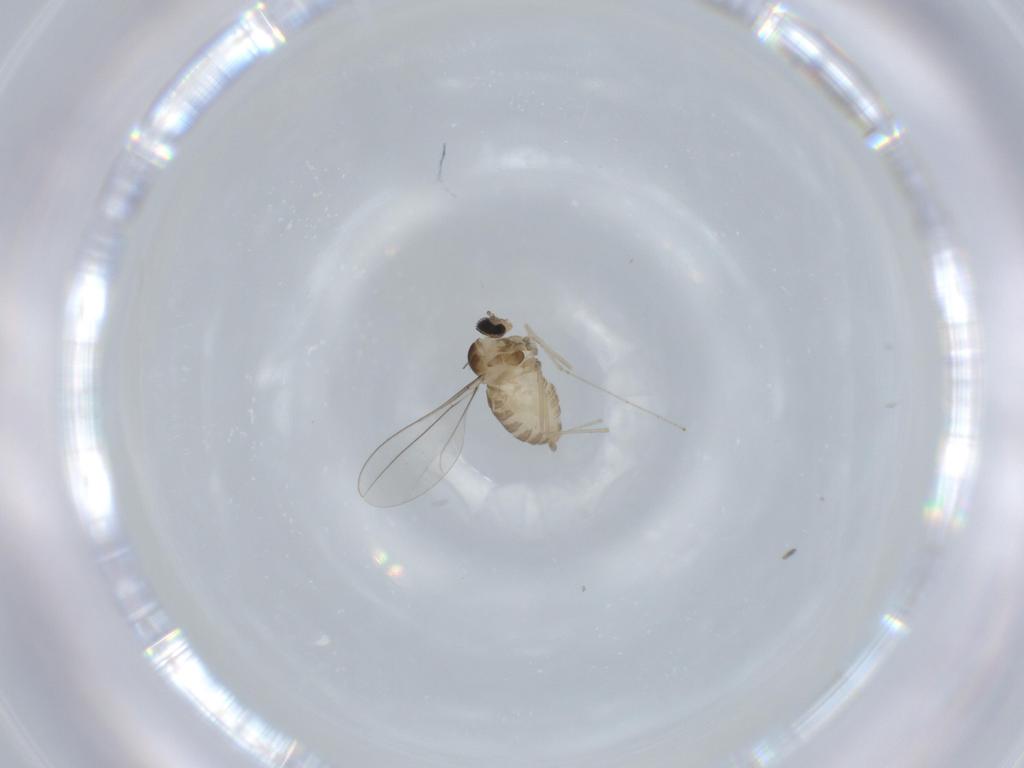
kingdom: Animalia
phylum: Arthropoda
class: Insecta
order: Diptera
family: Cecidomyiidae
